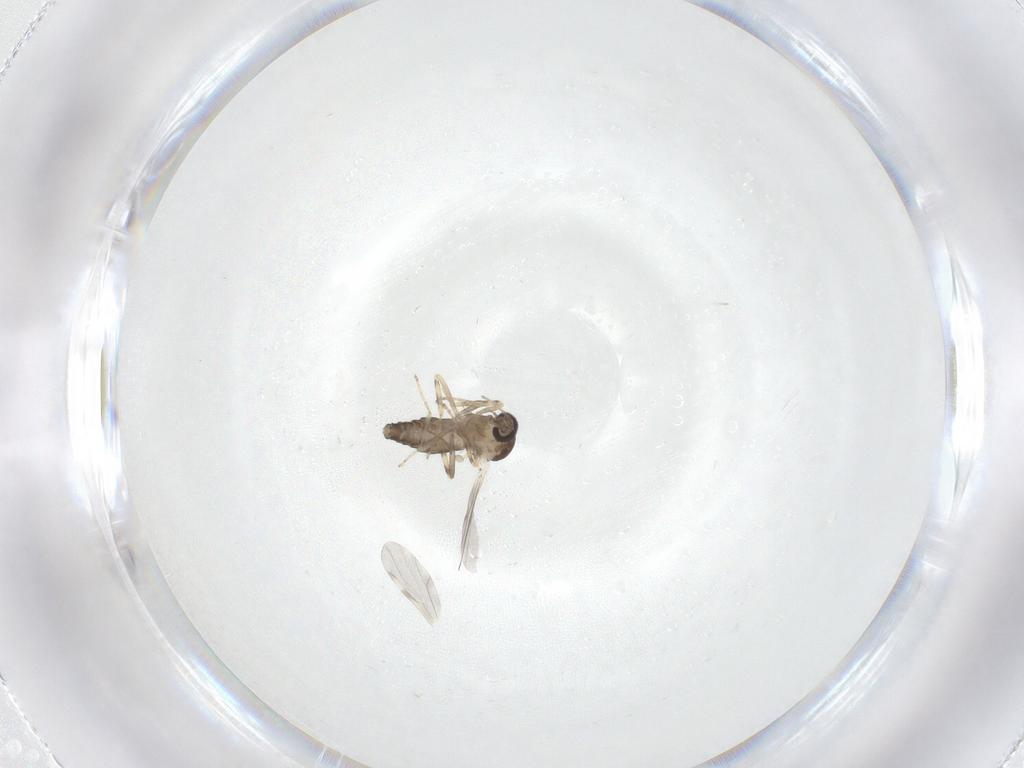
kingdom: Animalia
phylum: Arthropoda
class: Insecta
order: Diptera
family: Ceratopogonidae
